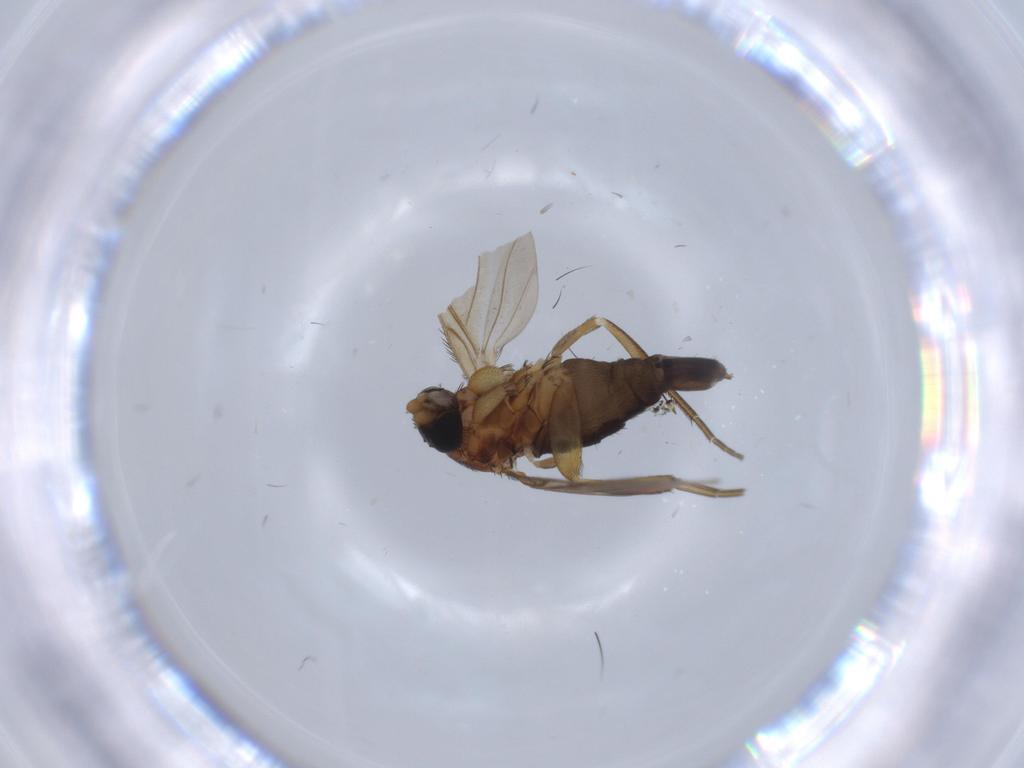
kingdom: Animalia
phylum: Arthropoda
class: Insecta
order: Diptera
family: Phoridae
